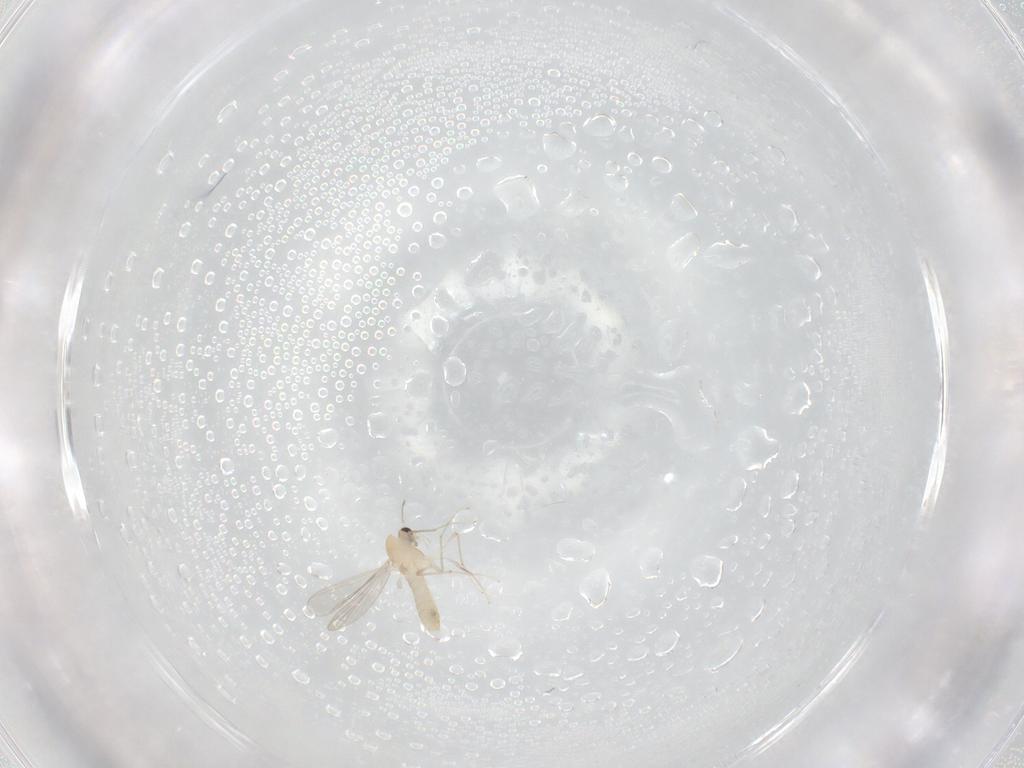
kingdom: Animalia
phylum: Arthropoda
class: Insecta
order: Diptera
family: Sciaridae
